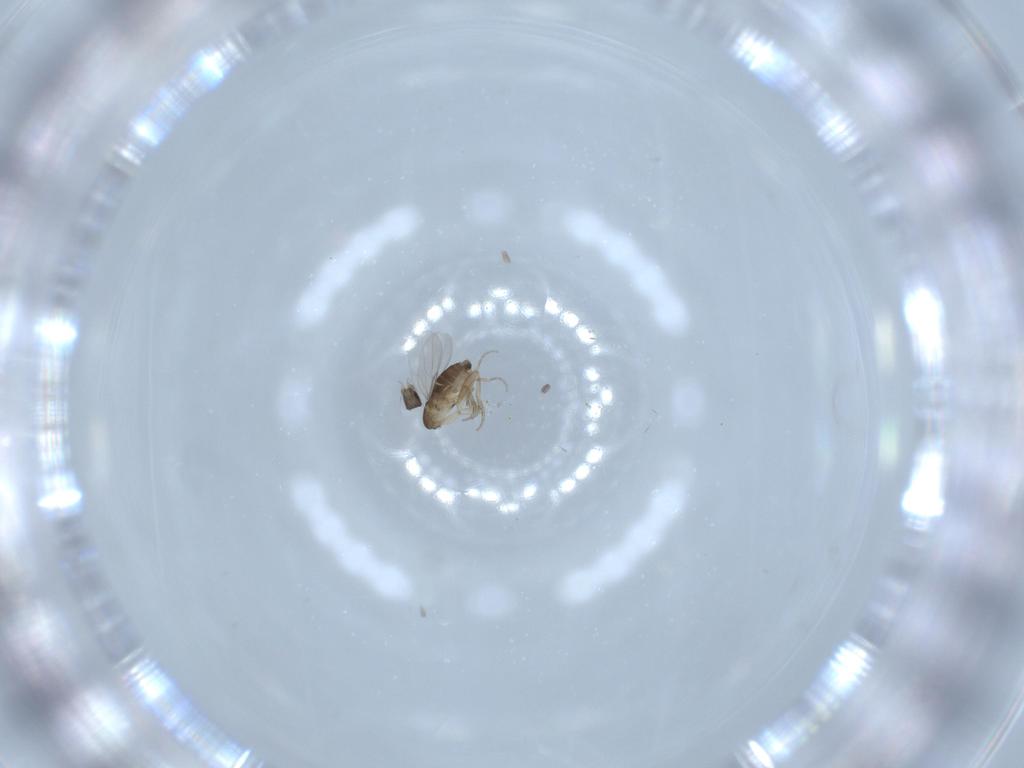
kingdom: Animalia
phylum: Arthropoda
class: Insecta
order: Diptera
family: Phoridae
